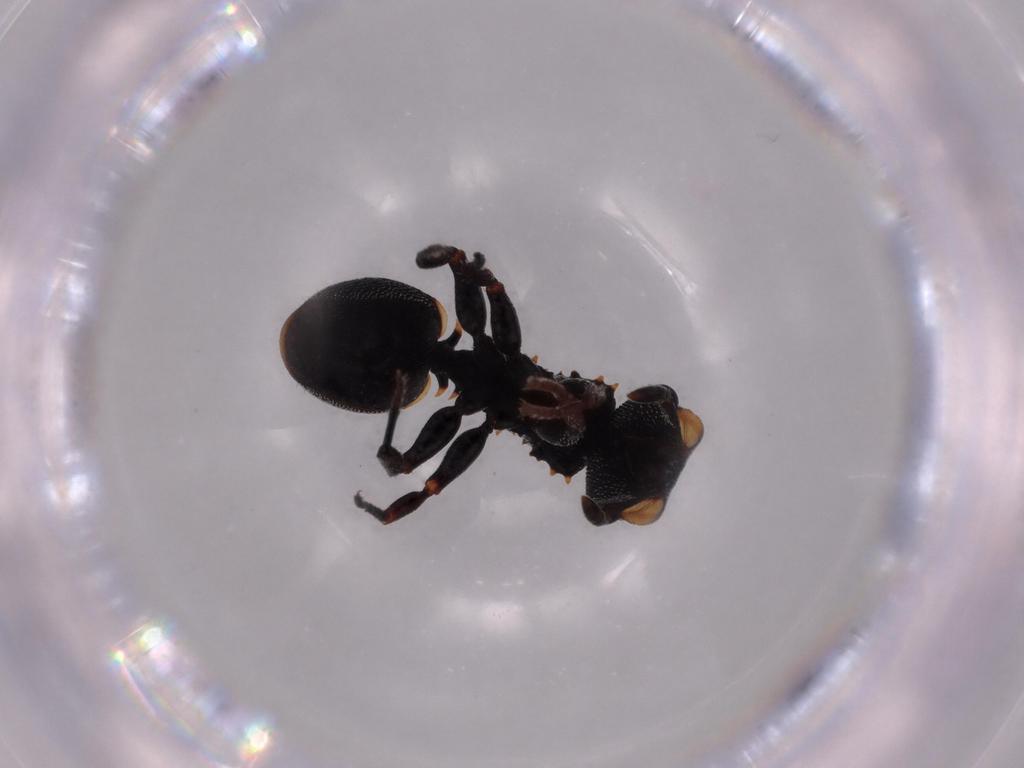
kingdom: Animalia
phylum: Arthropoda
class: Insecta
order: Hymenoptera
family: Formicidae
